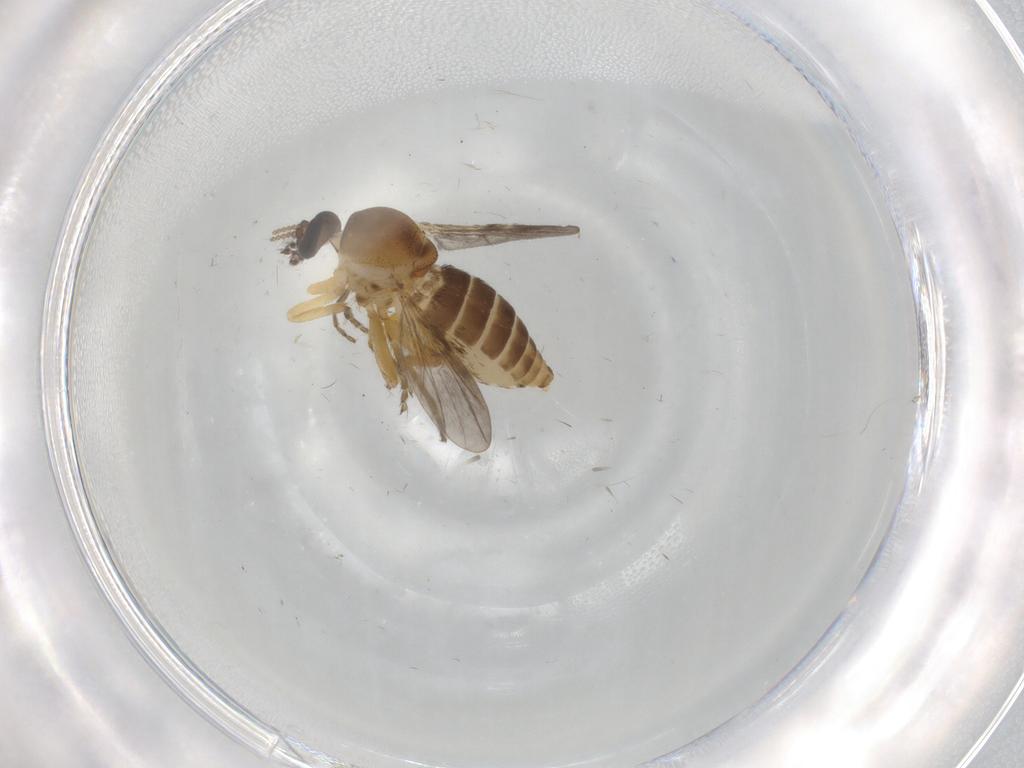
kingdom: Animalia
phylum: Arthropoda
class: Insecta
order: Diptera
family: Ceratopogonidae
